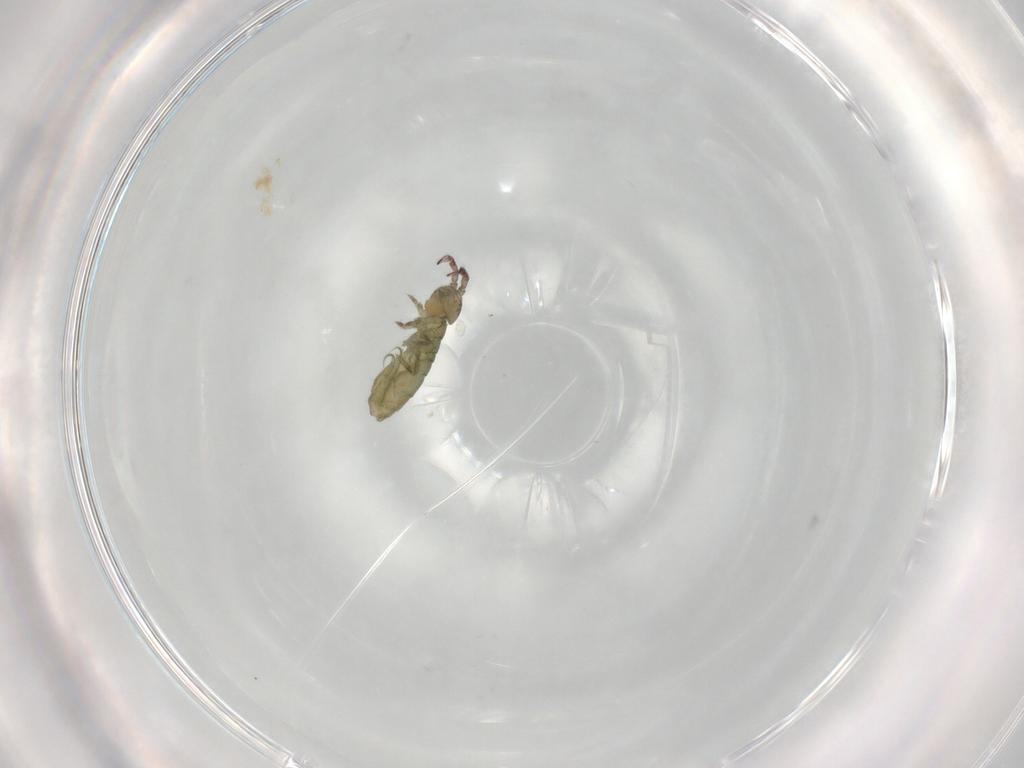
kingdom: Animalia
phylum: Arthropoda
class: Collembola
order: Entomobryomorpha
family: Isotomidae
